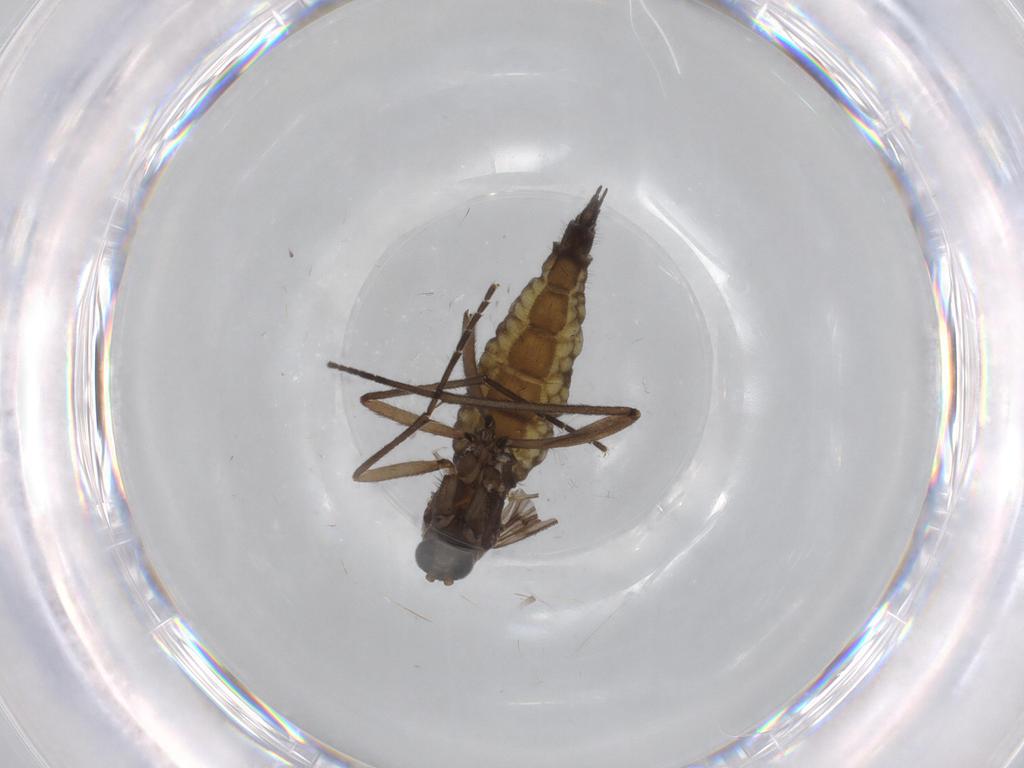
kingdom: Animalia
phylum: Arthropoda
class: Insecta
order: Diptera
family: Sciaridae
